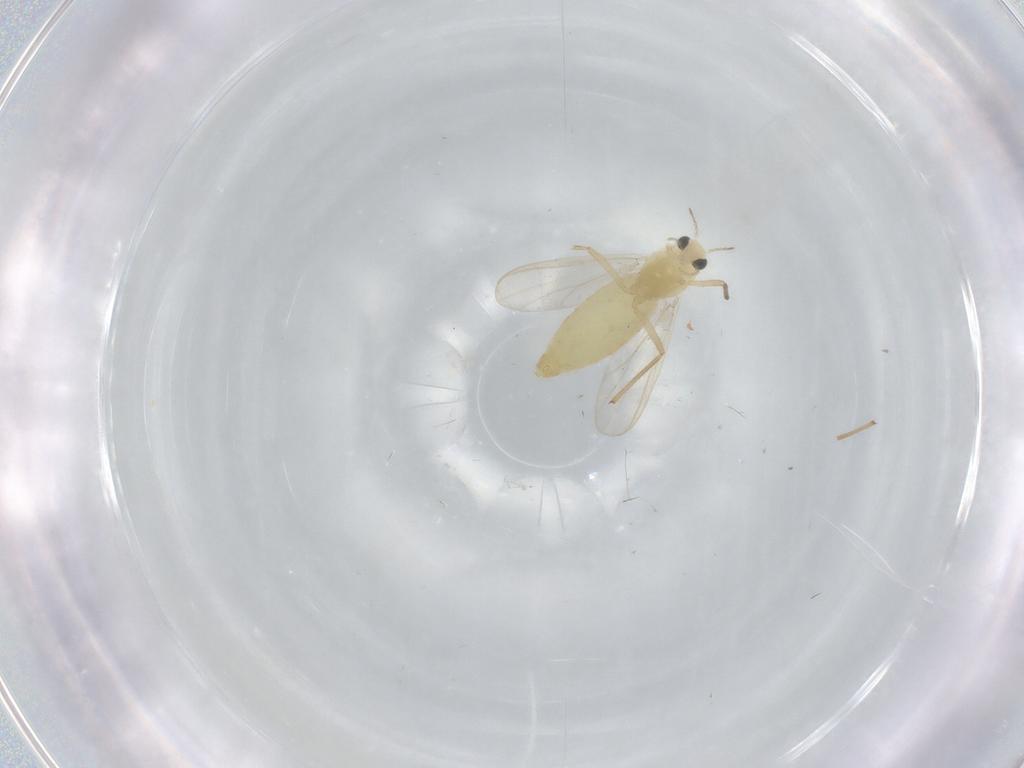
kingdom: Animalia
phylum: Arthropoda
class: Insecta
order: Diptera
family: Chironomidae
